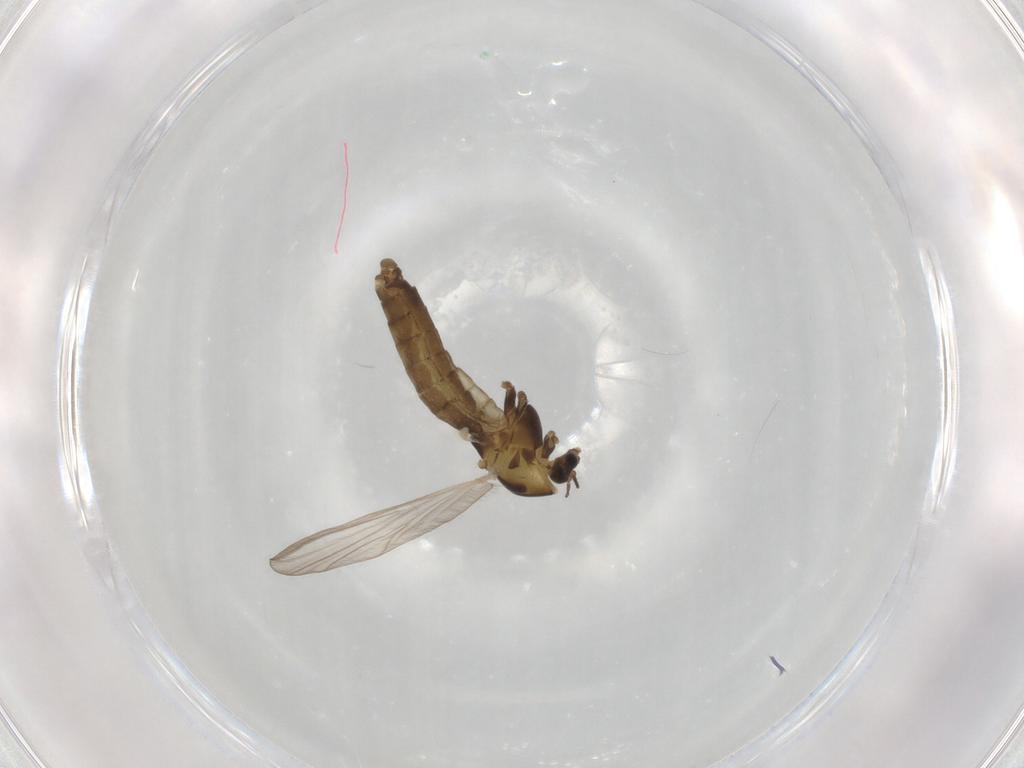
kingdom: Animalia
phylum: Arthropoda
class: Insecta
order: Diptera
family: Chironomidae
